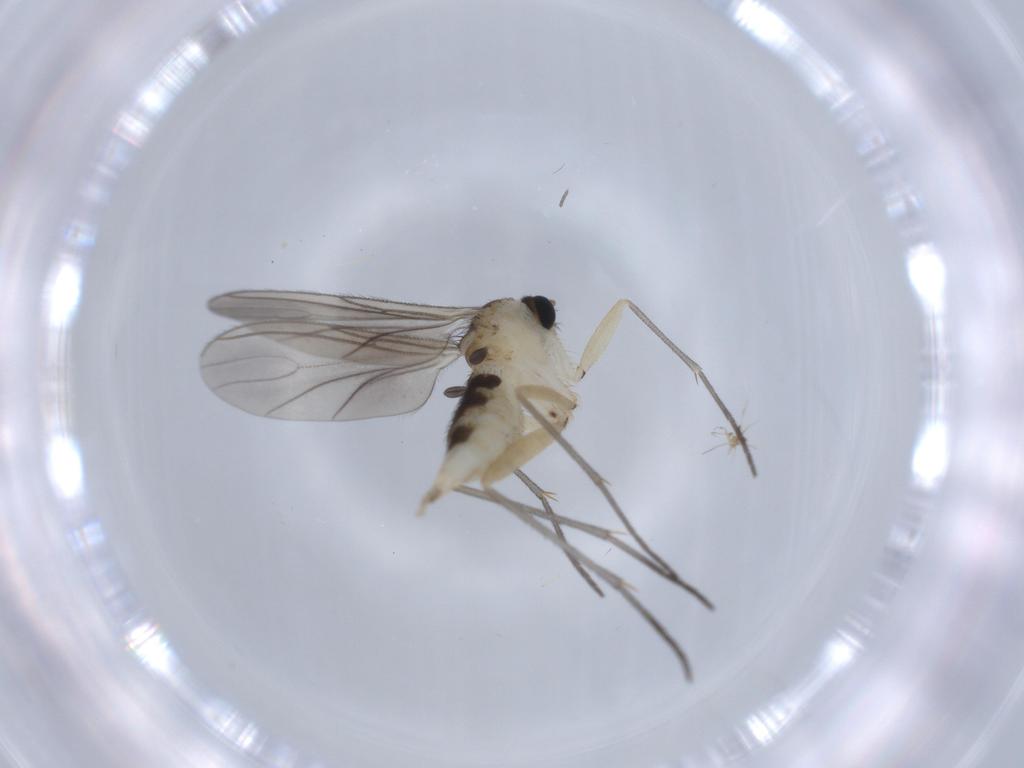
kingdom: Animalia
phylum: Arthropoda
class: Insecta
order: Diptera
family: Sciaridae
